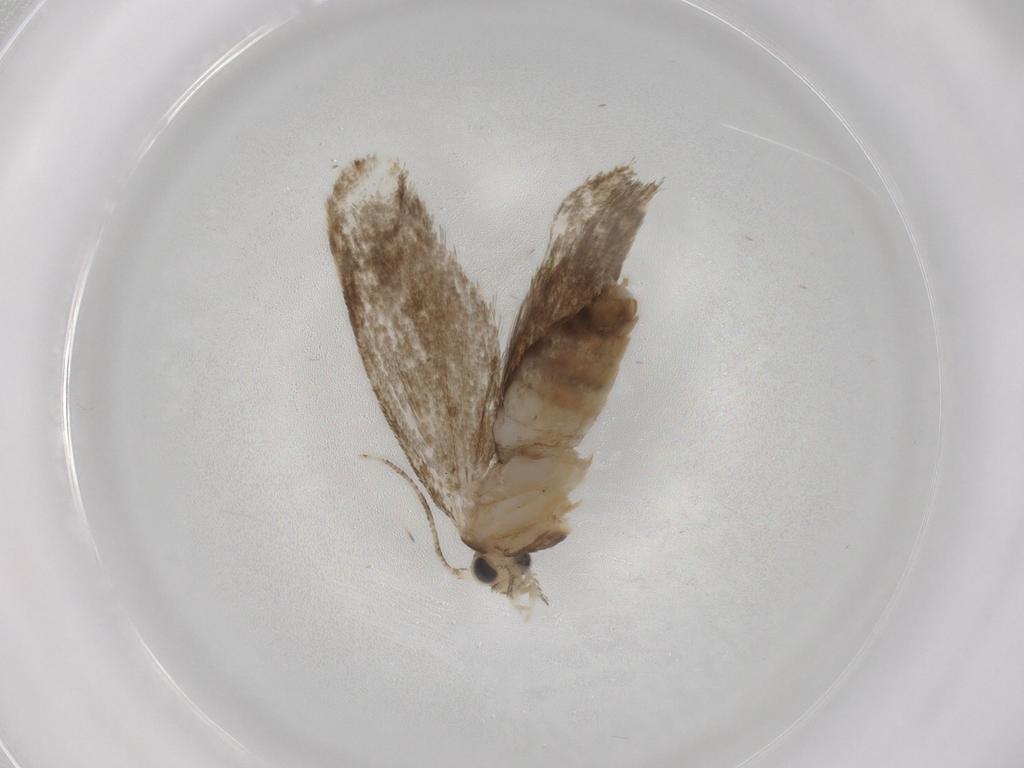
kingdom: Animalia
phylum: Arthropoda
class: Insecta
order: Lepidoptera
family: Tineidae
